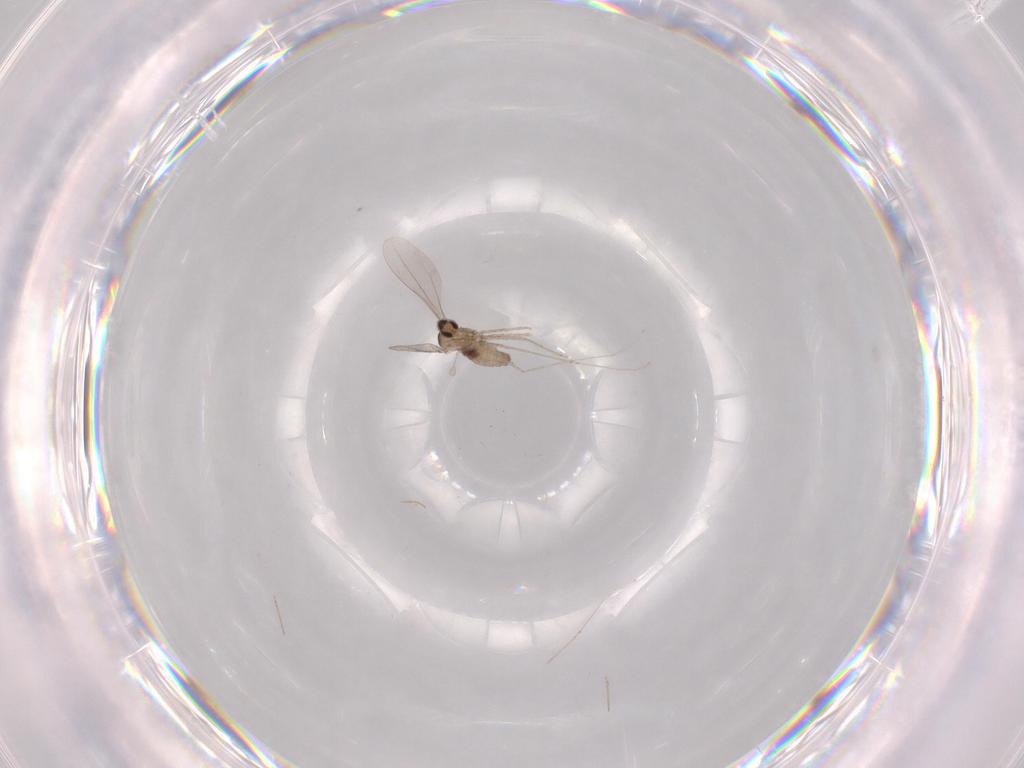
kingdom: Animalia
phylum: Arthropoda
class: Insecta
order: Diptera
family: Cecidomyiidae
